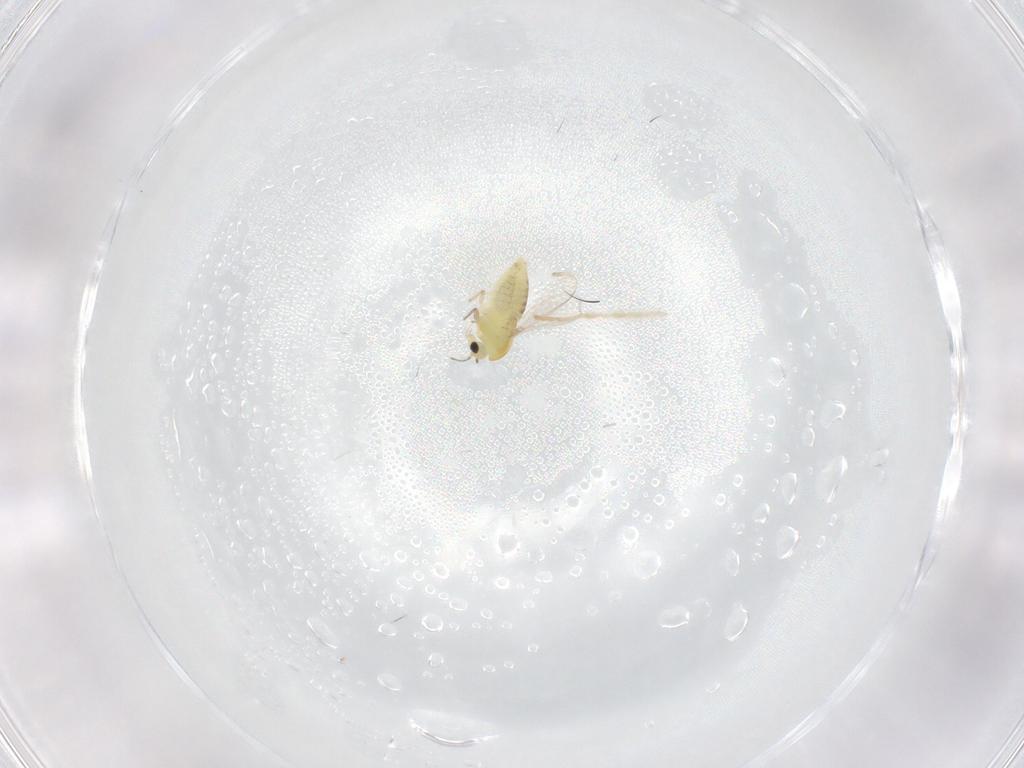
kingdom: Animalia
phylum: Arthropoda
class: Insecta
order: Diptera
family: Chironomidae
